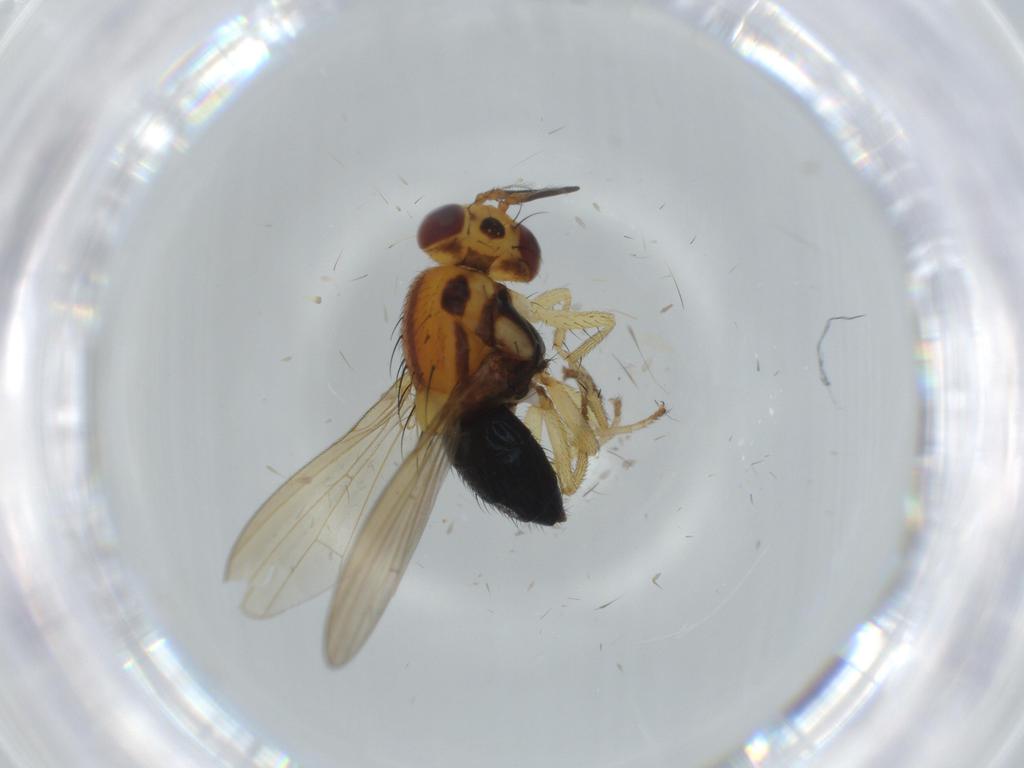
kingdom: Animalia
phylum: Arthropoda
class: Insecta
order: Diptera
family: Lauxaniidae
